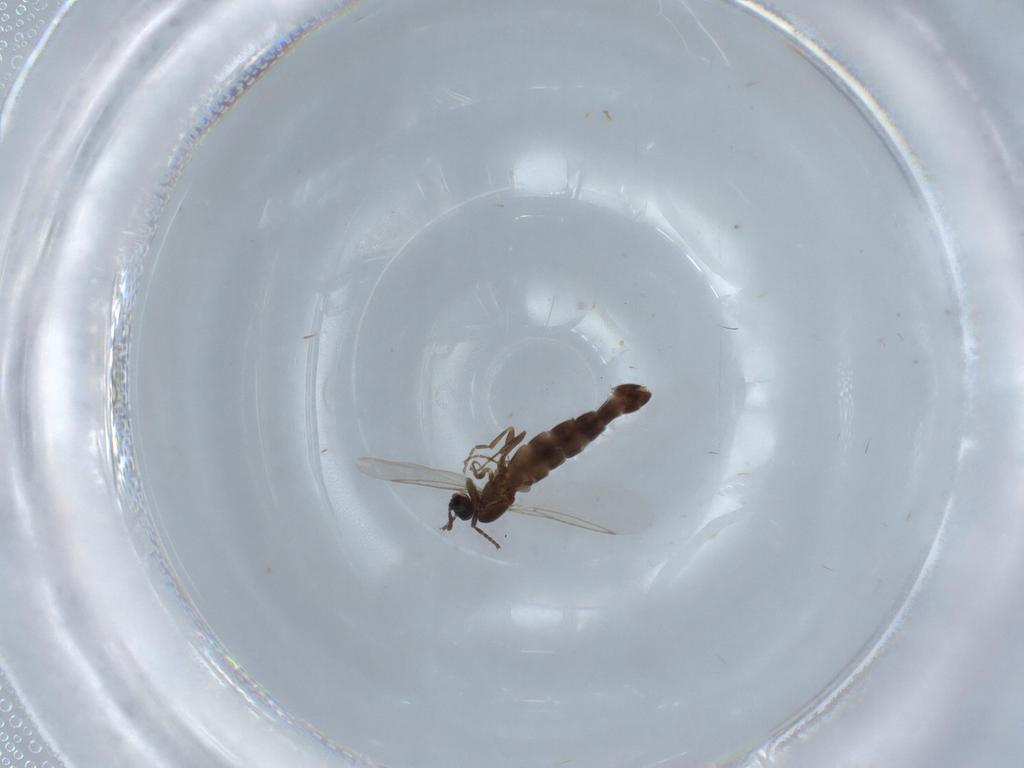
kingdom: Animalia
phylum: Arthropoda
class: Insecta
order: Diptera
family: Scatopsidae
